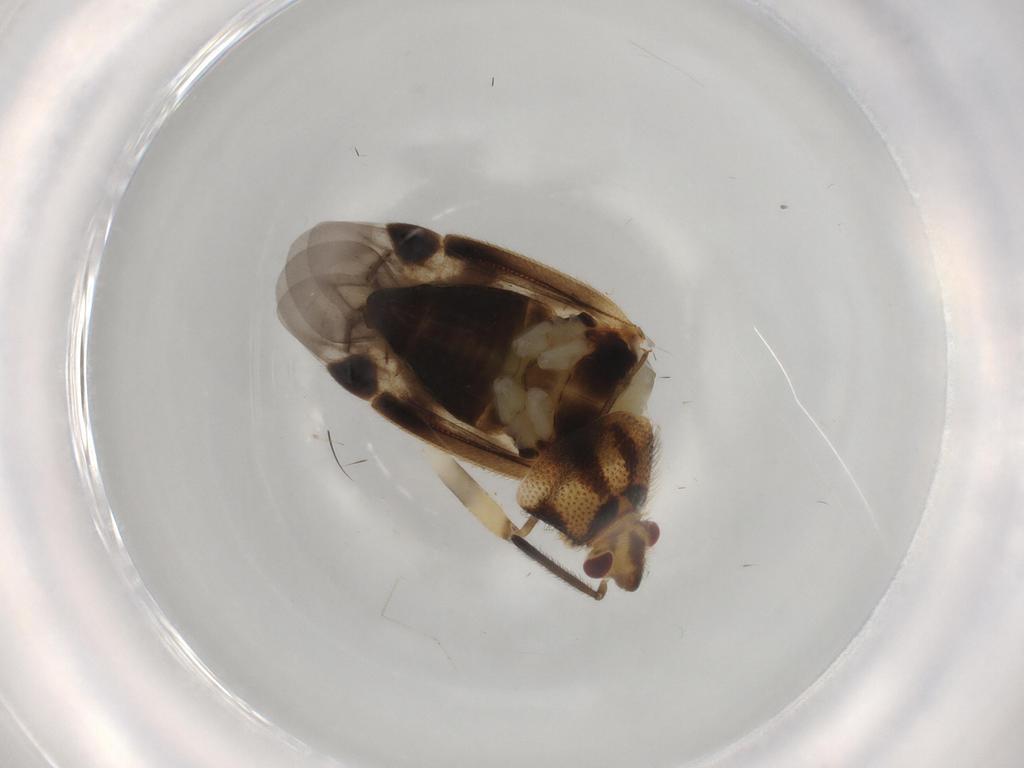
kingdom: Animalia
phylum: Arthropoda
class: Insecta
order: Hemiptera
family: Miridae
